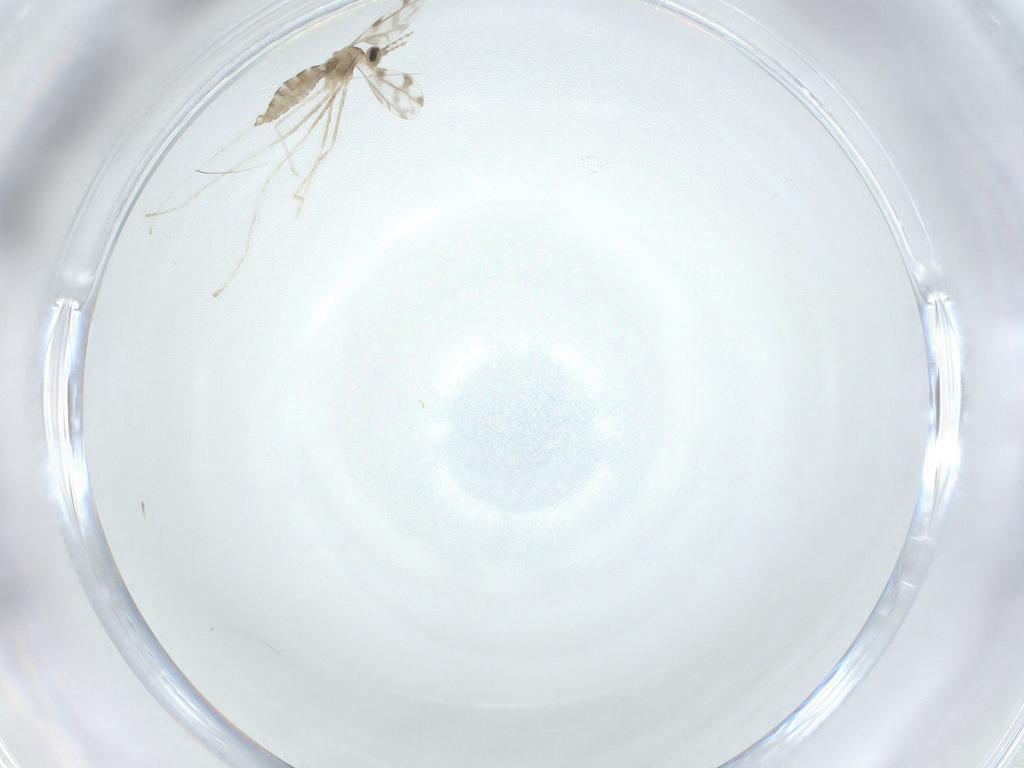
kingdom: Animalia
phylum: Arthropoda
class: Insecta
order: Diptera
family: Cecidomyiidae
